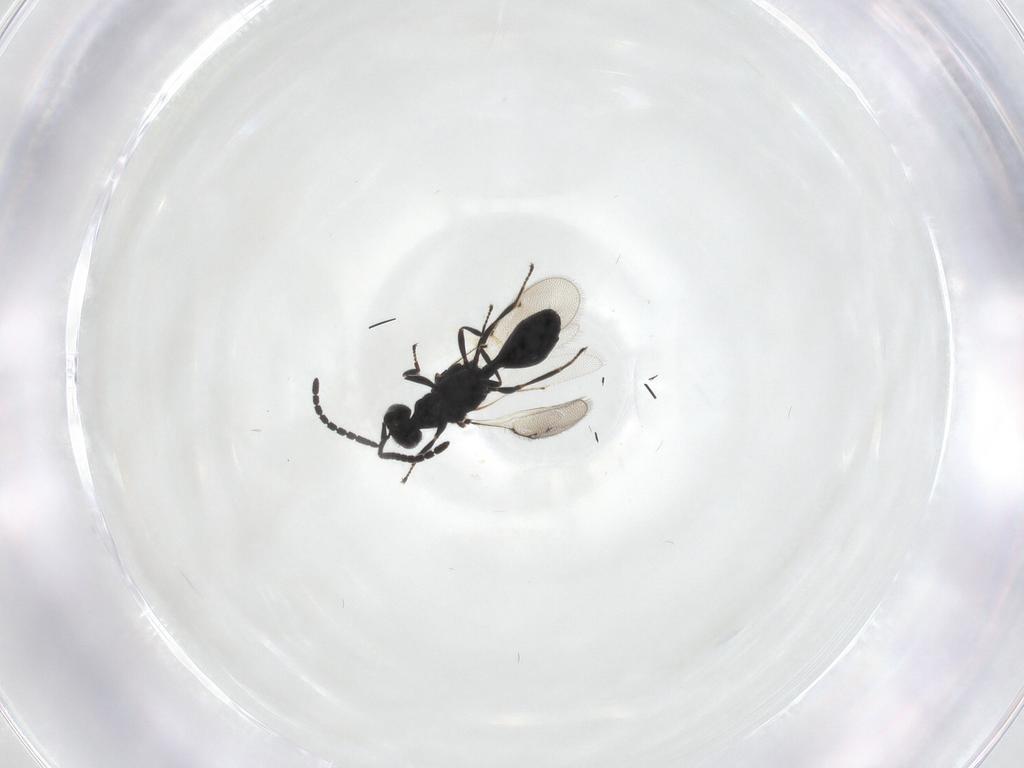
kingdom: Animalia
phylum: Arthropoda
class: Insecta
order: Hymenoptera
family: Spalangiidae
